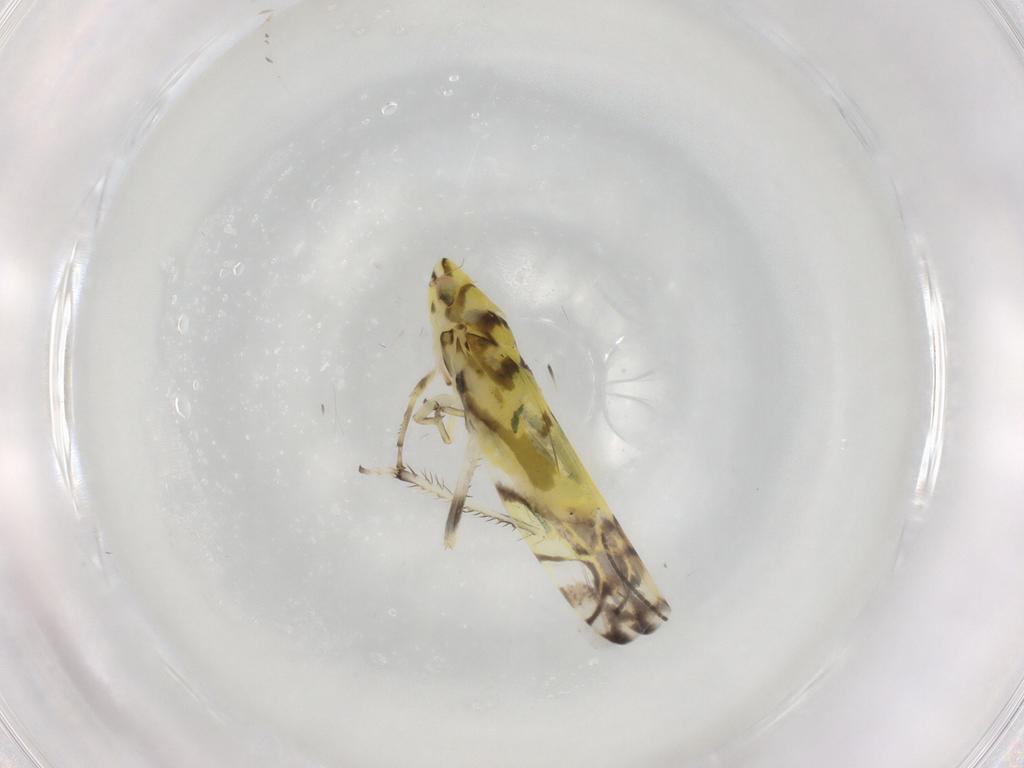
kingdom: Animalia
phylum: Arthropoda
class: Insecta
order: Hemiptera
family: Cicadellidae
